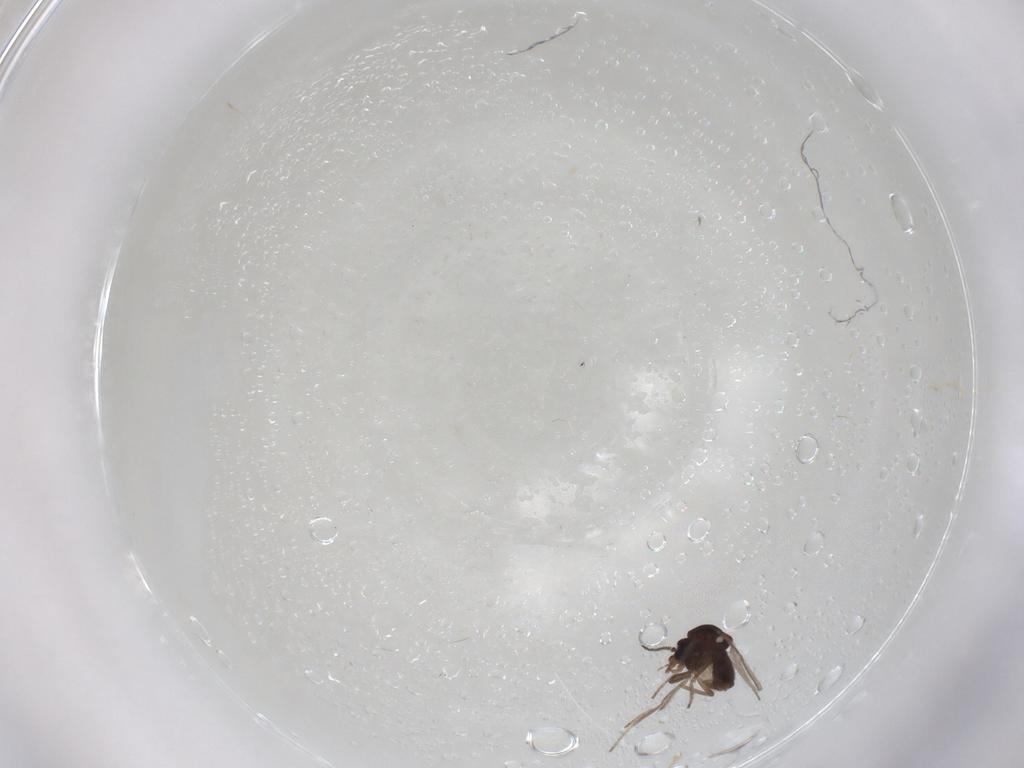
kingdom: Animalia
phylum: Arthropoda
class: Insecta
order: Diptera
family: Ceratopogonidae
